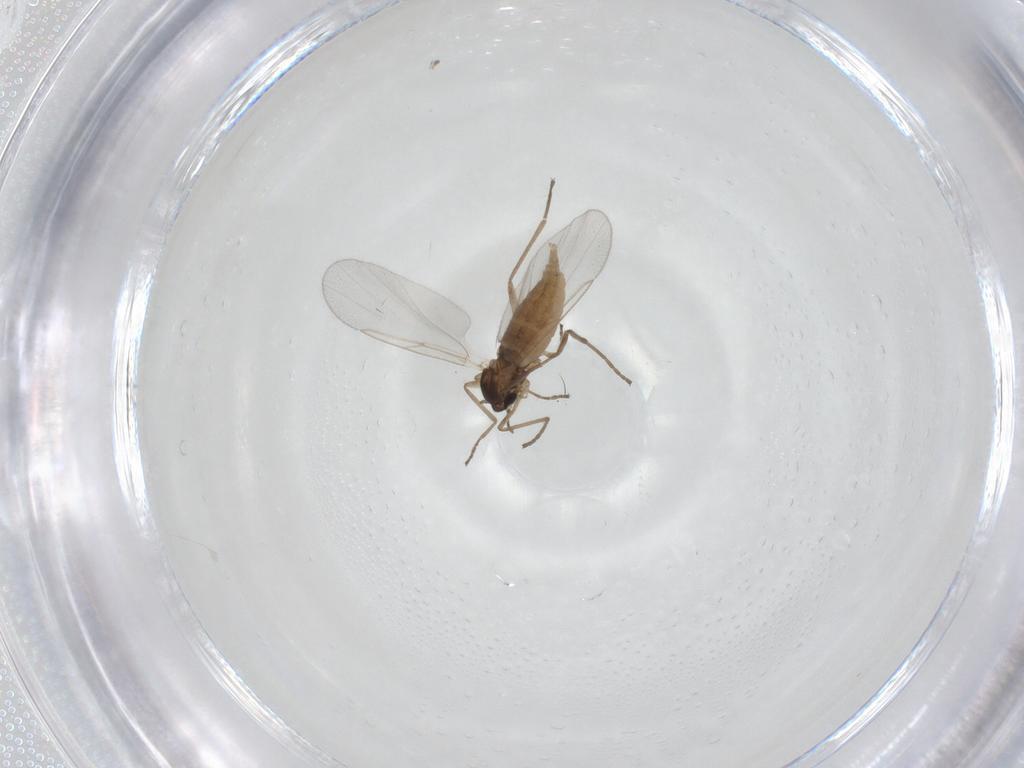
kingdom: Animalia
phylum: Arthropoda
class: Insecta
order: Diptera
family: Cecidomyiidae
